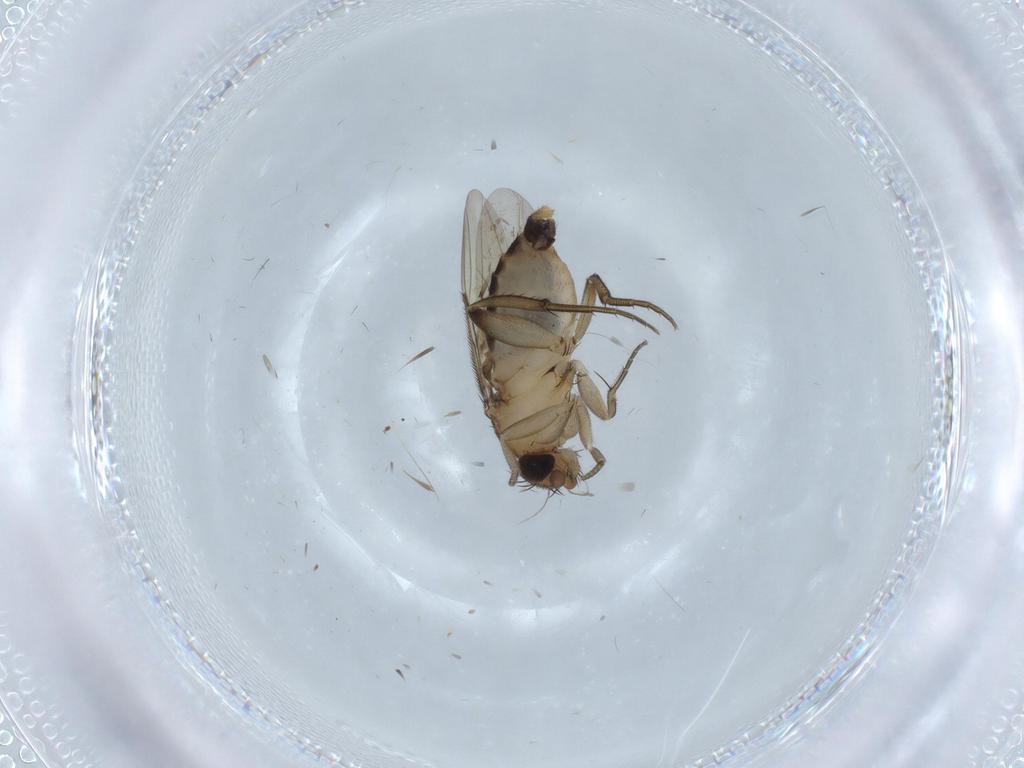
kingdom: Animalia
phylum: Arthropoda
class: Insecta
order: Diptera
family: Phoridae
